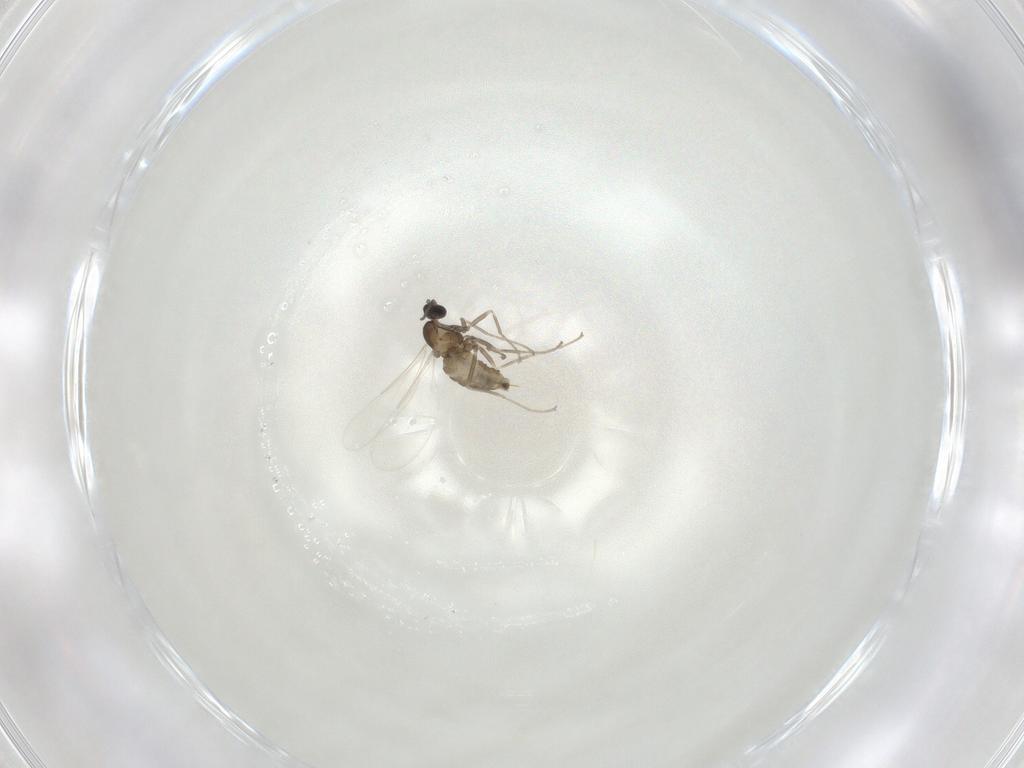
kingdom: Animalia
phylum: Arthropoda
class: Insecta
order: Diptera
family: Cecidomyiidae
